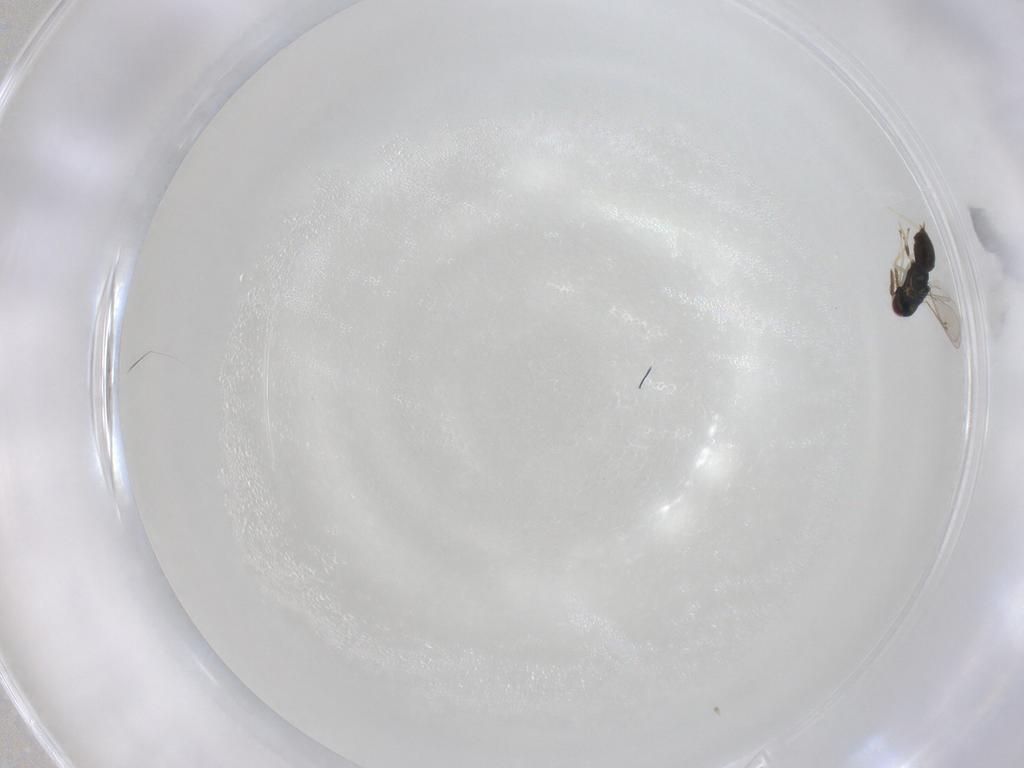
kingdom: Animalia
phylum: Arthropoda
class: Insecta
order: Hymenoptera
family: Eulophidae
